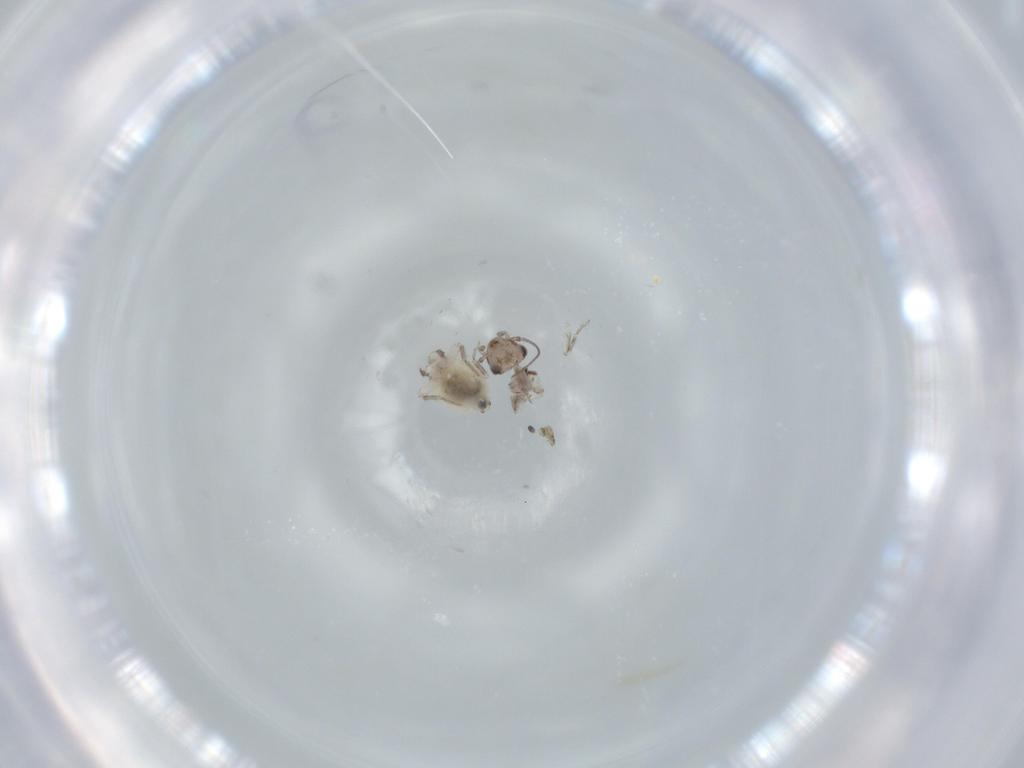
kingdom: Animalia
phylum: Arthropoda
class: Insecta
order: Psocodea
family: Lepidopsocidae
